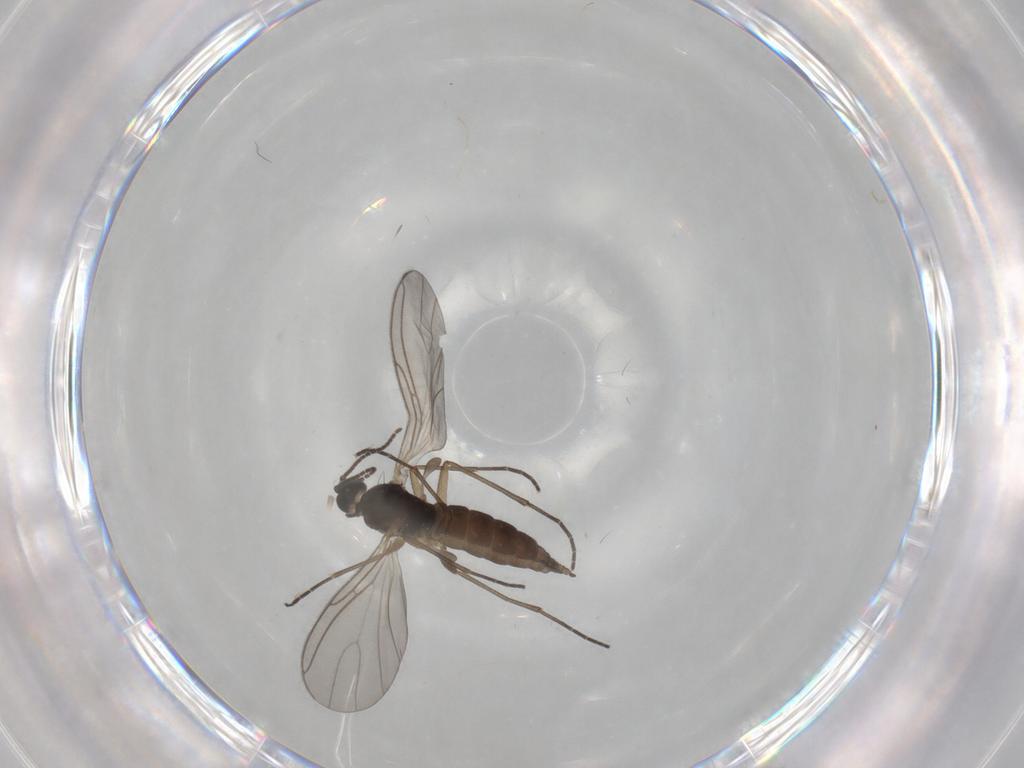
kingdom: Animalia
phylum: Arthropoda
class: Insecta
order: Diptera
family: Sciaridae
